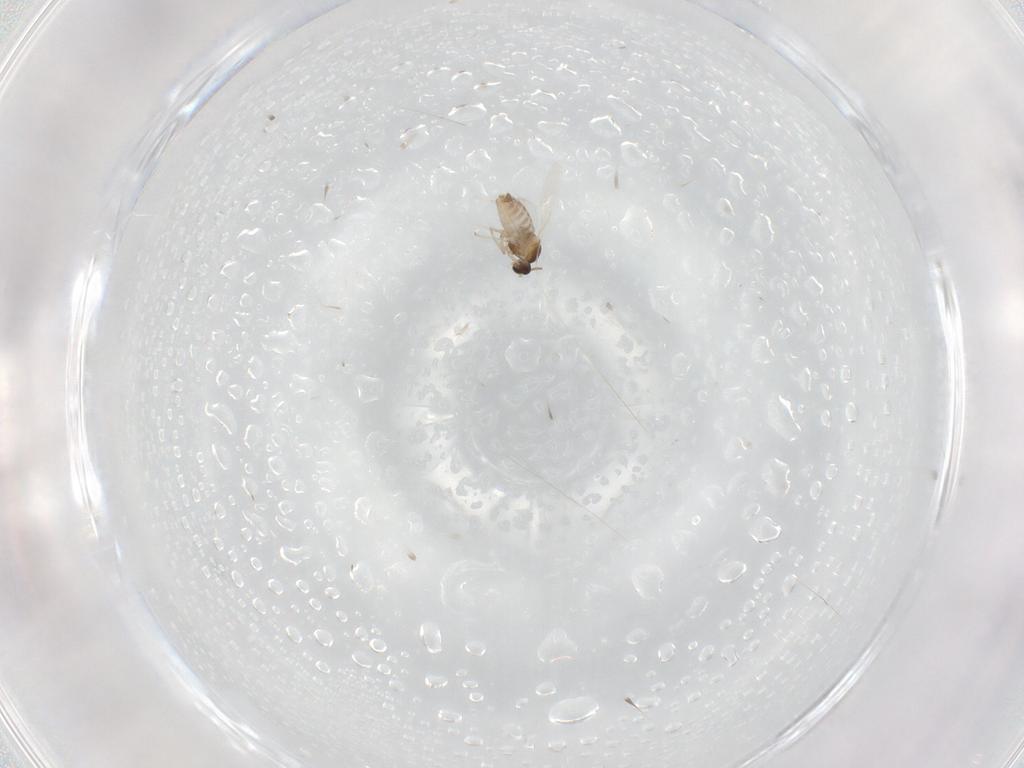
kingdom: Animalia
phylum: Arthropoda
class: Insecta
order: Diptera
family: Cecidomyiidae
